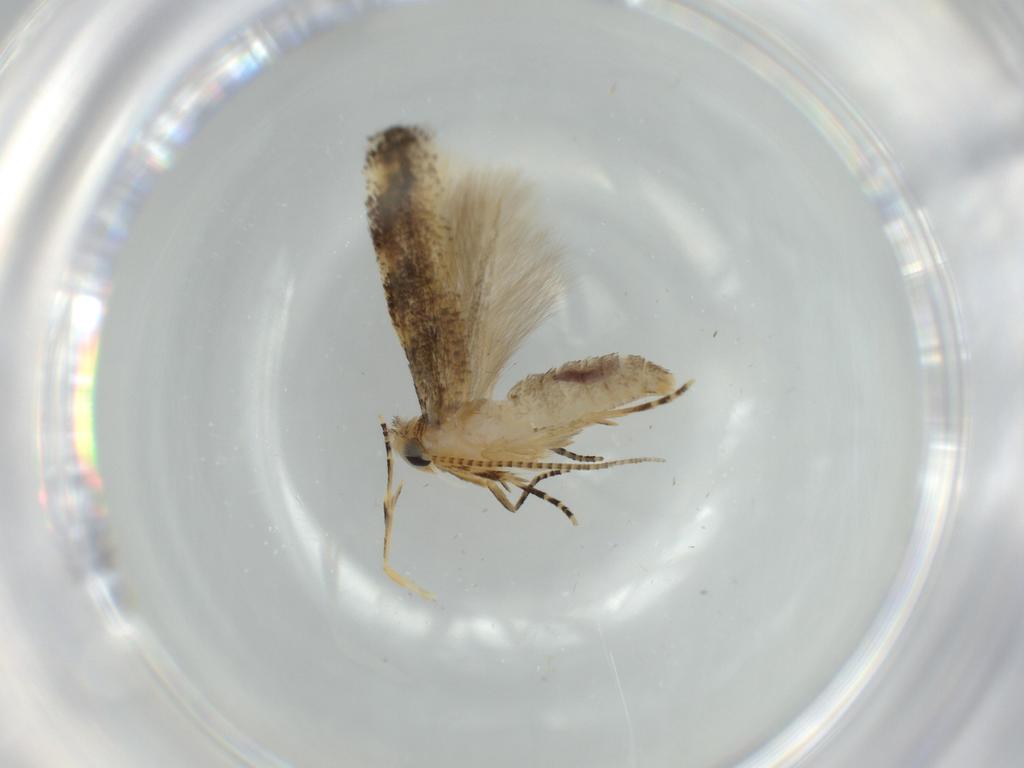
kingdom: Animalia
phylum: Arthropoda
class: Insecta
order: Lepidoptera
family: Bucculatricidae
